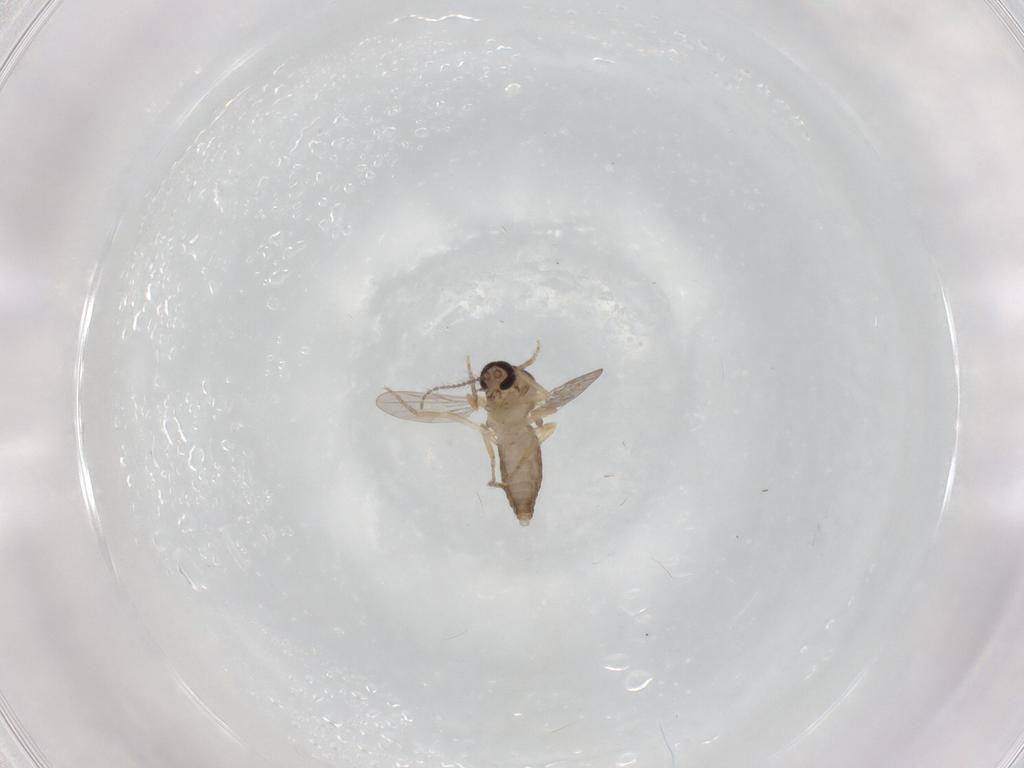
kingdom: Animalia
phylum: Arthropoda
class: Insecta
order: Diptera
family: Chironomidae
